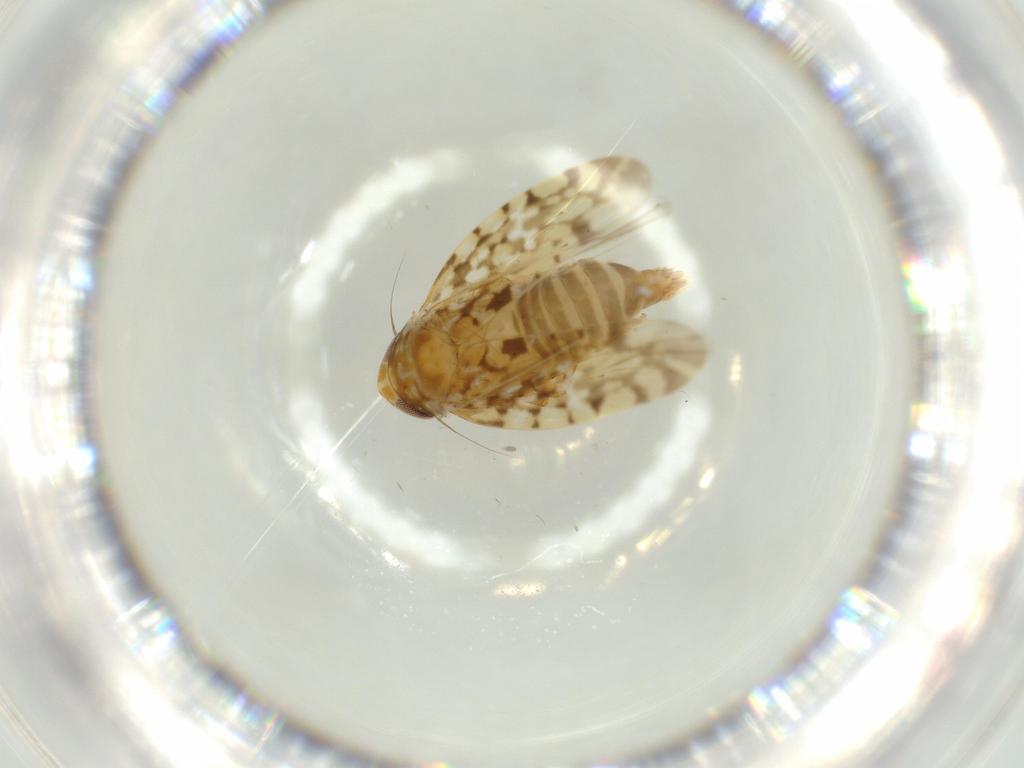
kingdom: Animalia
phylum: Arthropoda
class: Insecta
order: Hemiptera
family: Cicadellidae
